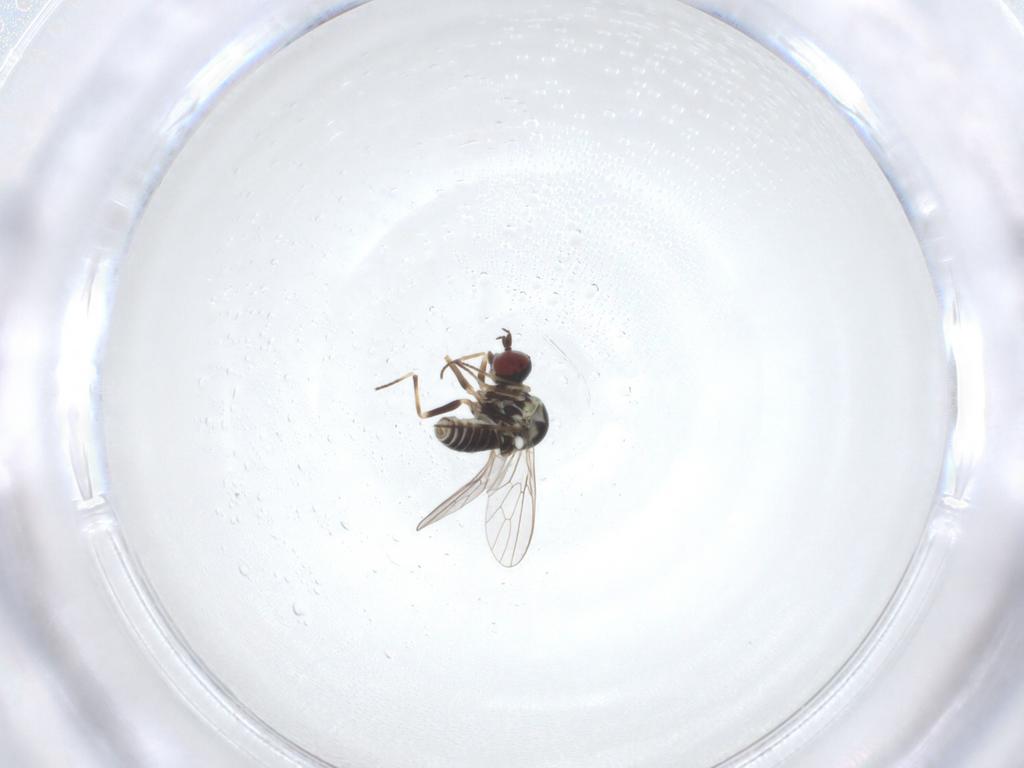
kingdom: Animalia
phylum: Arthropoda
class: Insecta
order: Diptera
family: Mythicomyiidae
